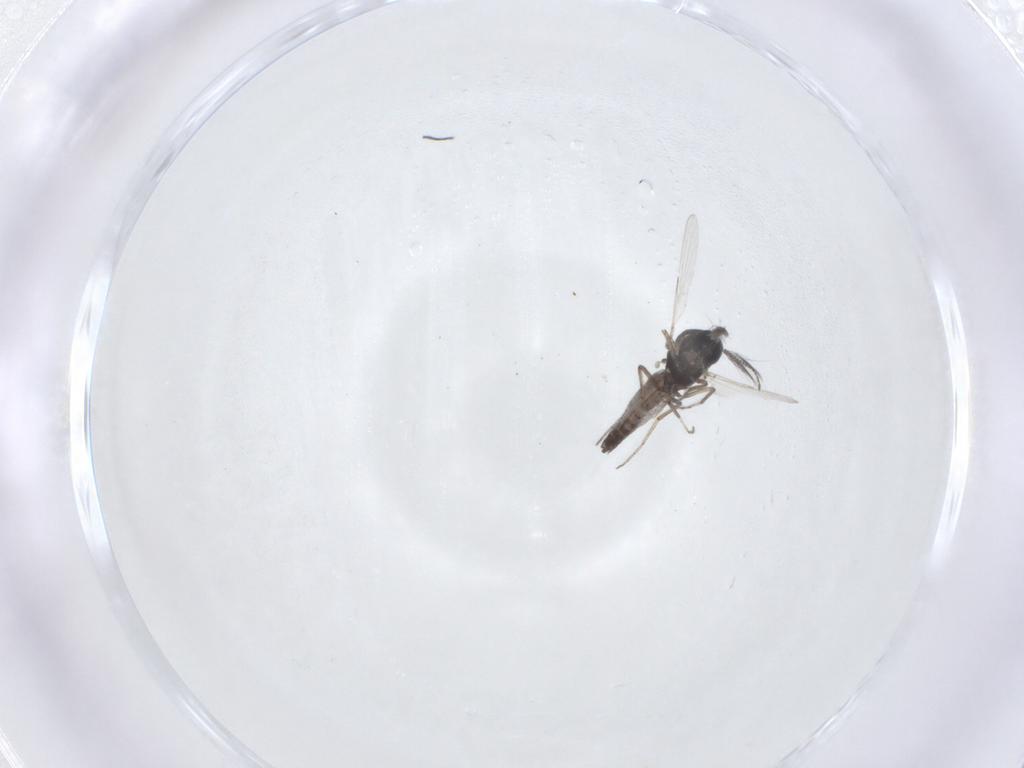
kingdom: Animalia
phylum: Arthropoda
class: Insecta
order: Diptera
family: Ceratopogonidae
